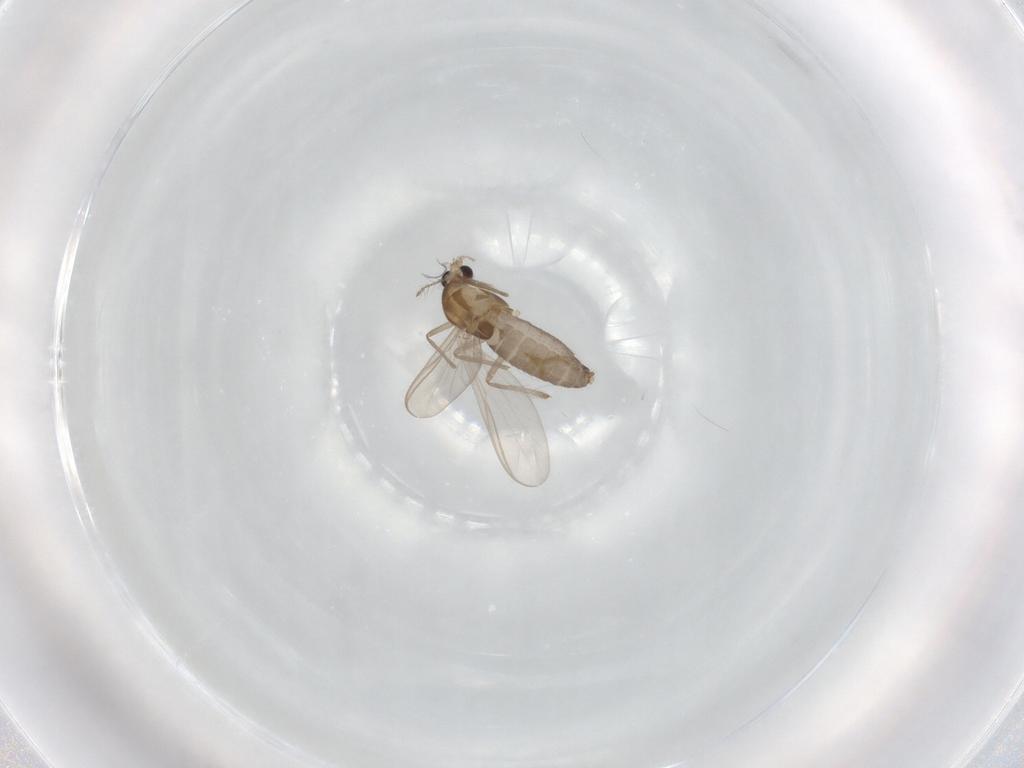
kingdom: Animalia
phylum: Arthropoda
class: Insecta
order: Diptera
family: Chironomidae
